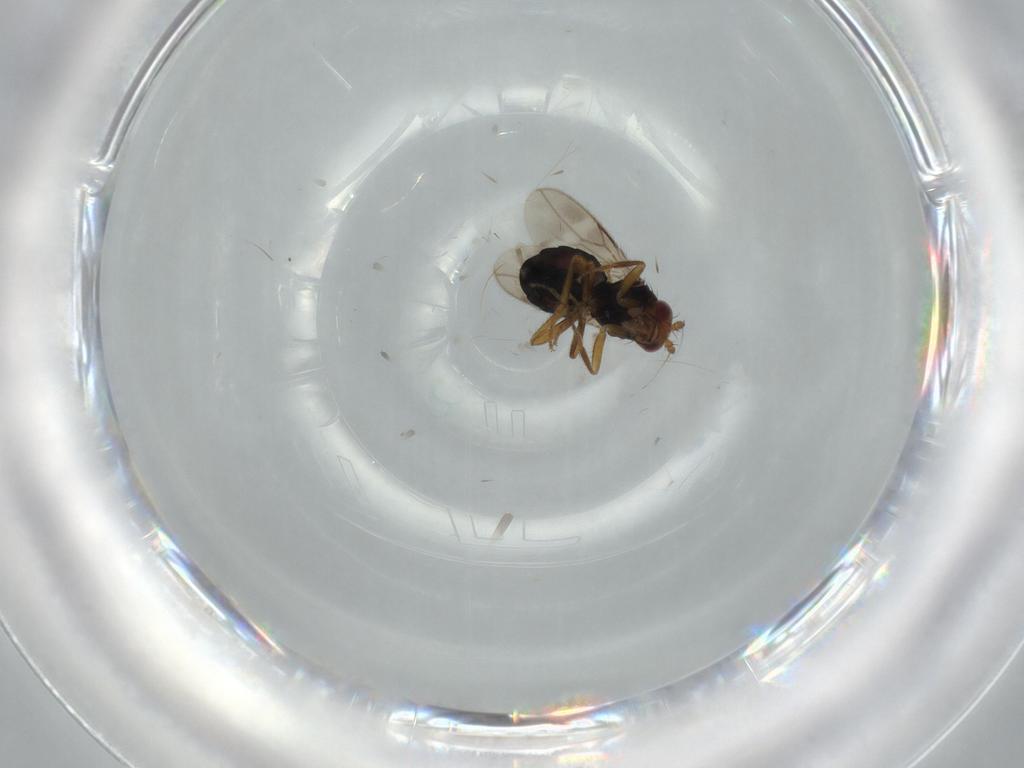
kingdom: Animalia
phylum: Arthropoda
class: Insecta
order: Diptera
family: Sphaeroceridae
